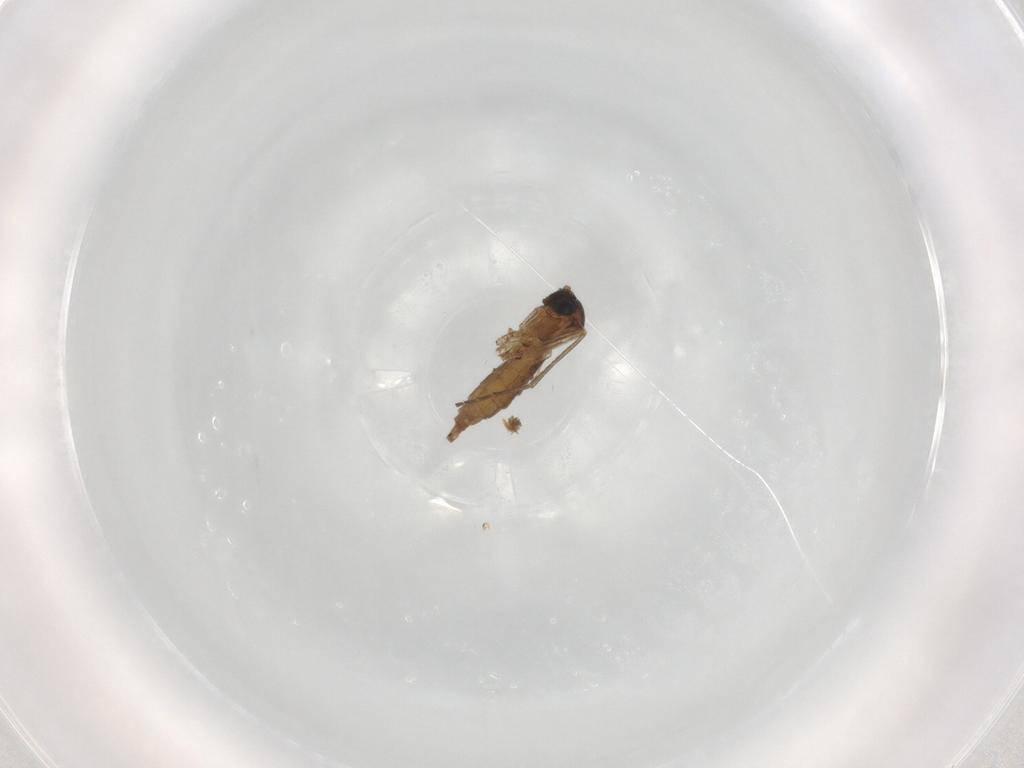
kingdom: Animalia
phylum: Arthropoda
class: Insecta
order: Diptera
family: Sciaridae
